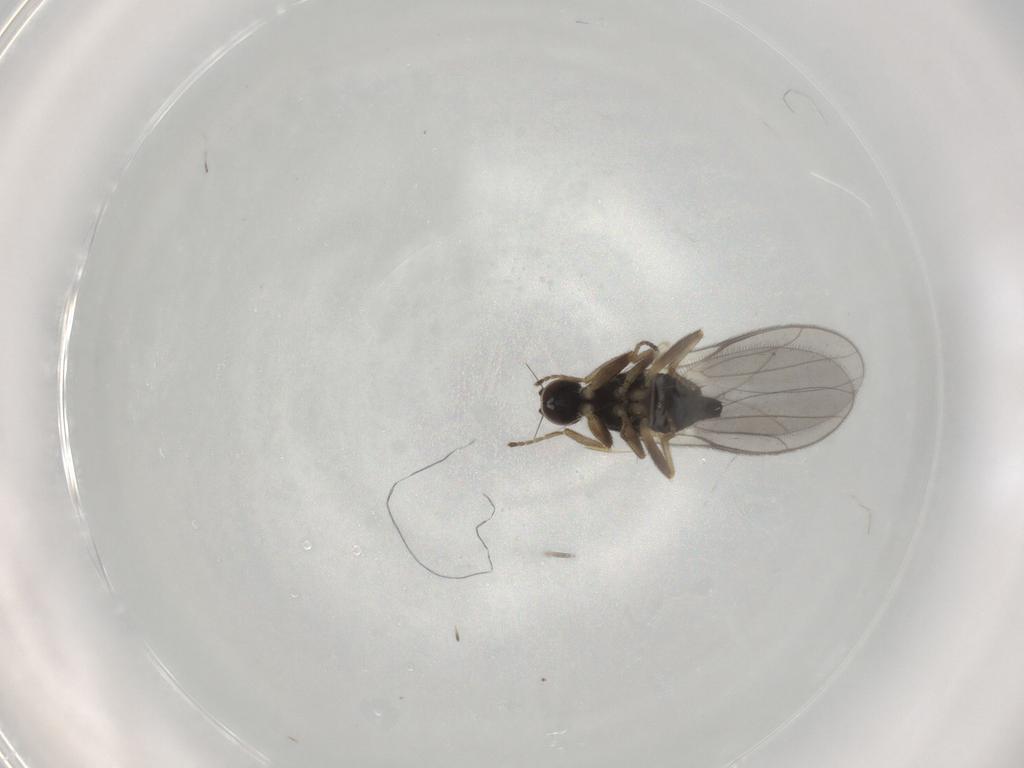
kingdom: Animalia
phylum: Arthropoda
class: Insecta
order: Diptera
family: Hybotidae
